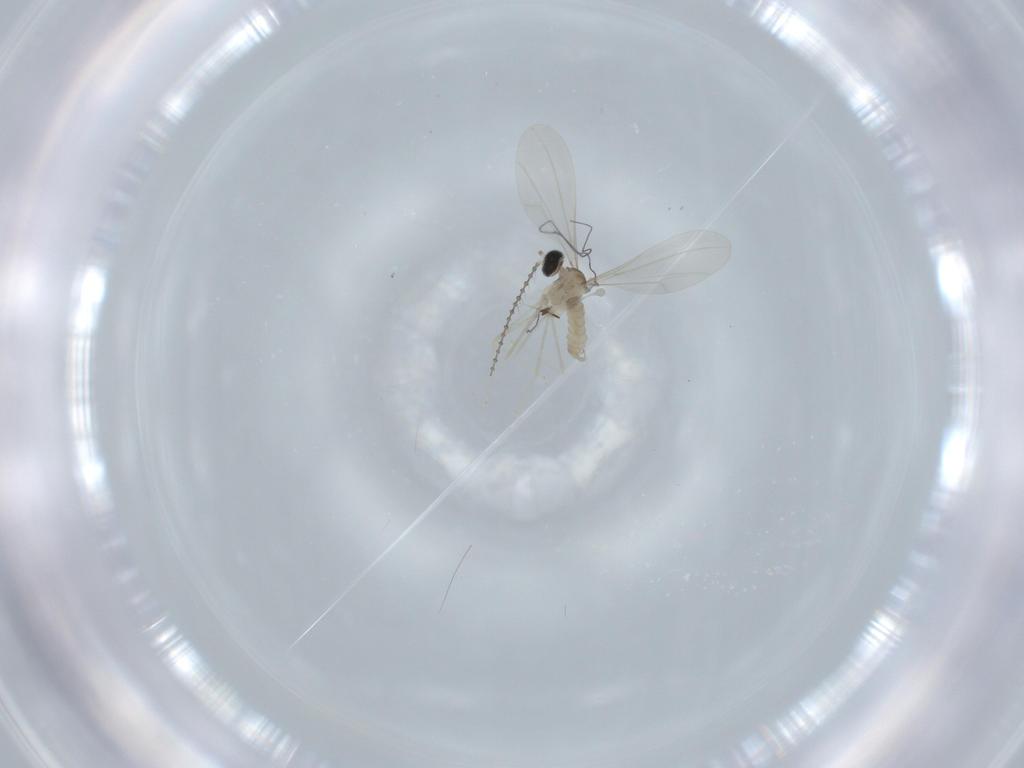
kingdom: Animalia
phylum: Arthropoda
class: Insecta
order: Diptera
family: Cecidomyiidae
